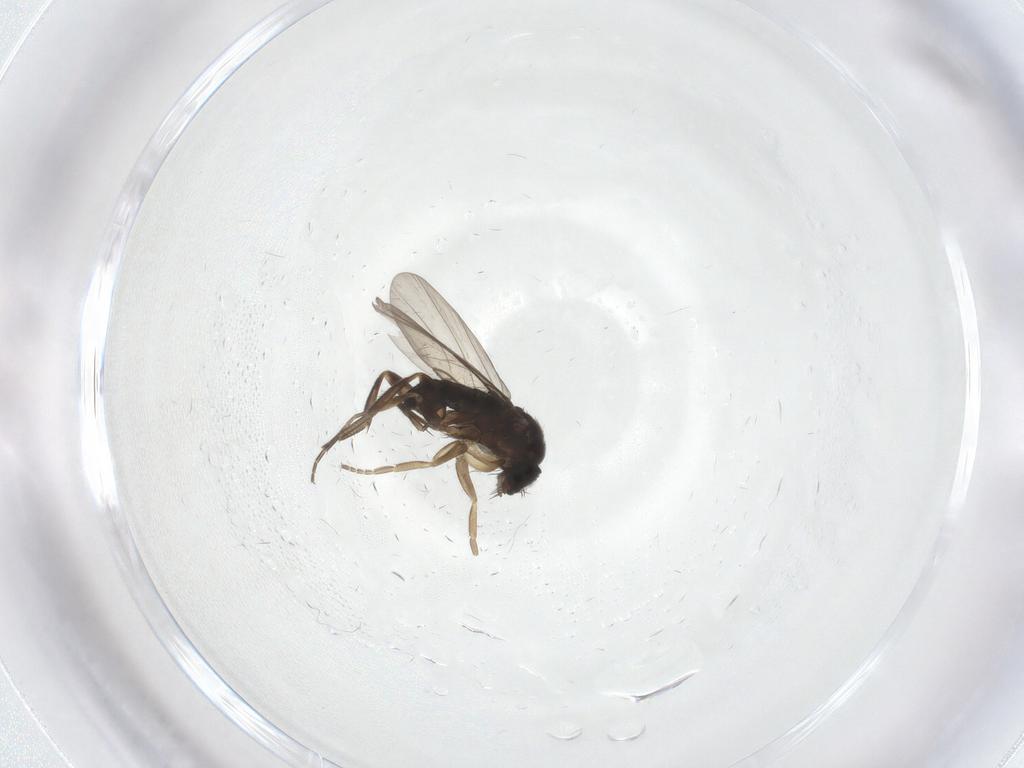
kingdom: Animalia
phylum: Arthropoda
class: Insecta
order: Diptera
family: Phoridae
